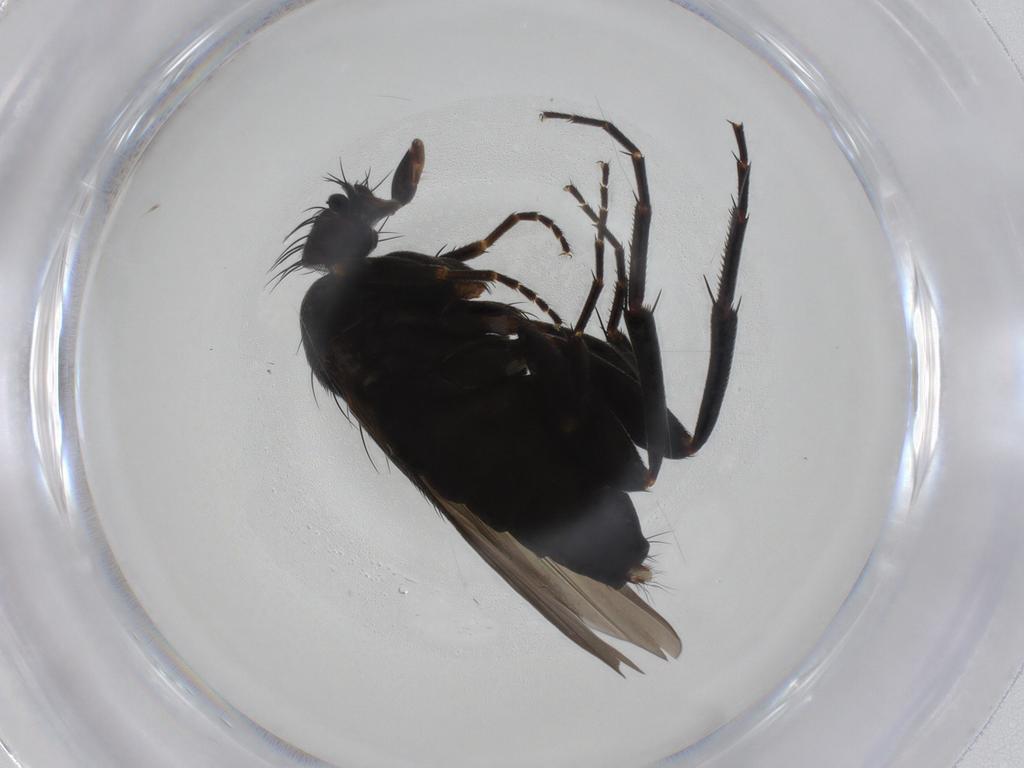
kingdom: Animalia
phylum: Arthropoda
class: Insecta
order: Diptera
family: Phoridae
